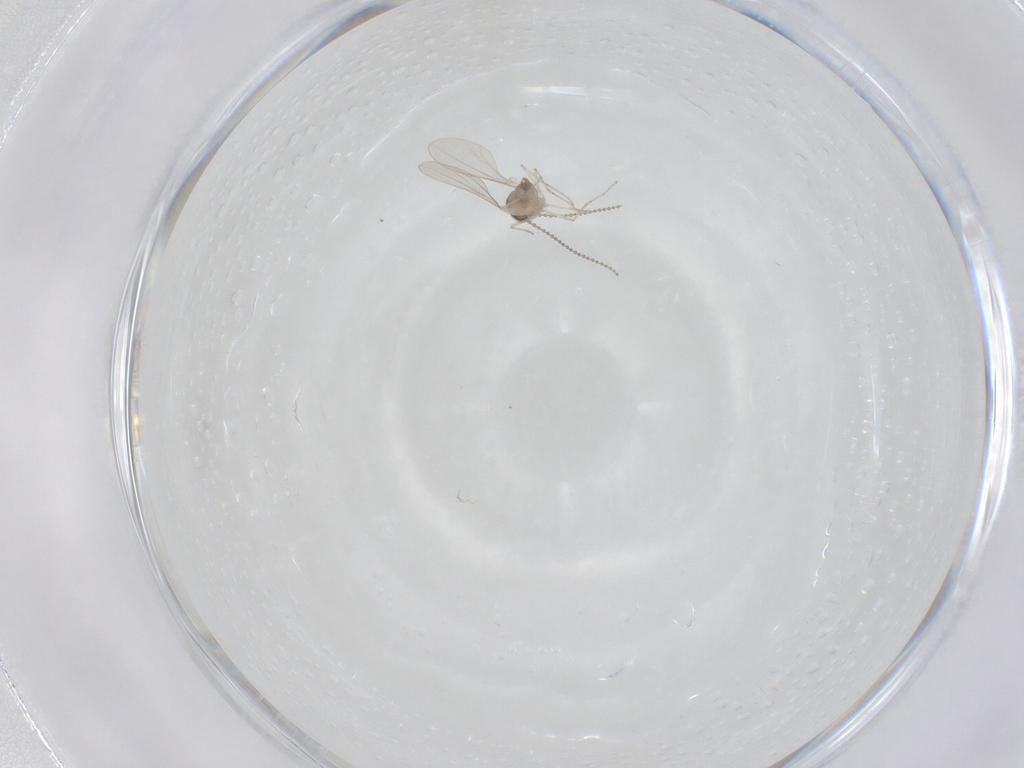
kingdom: Animalia
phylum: Arthropoda
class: Insecta
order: Diptera
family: Cecidomyiidae
